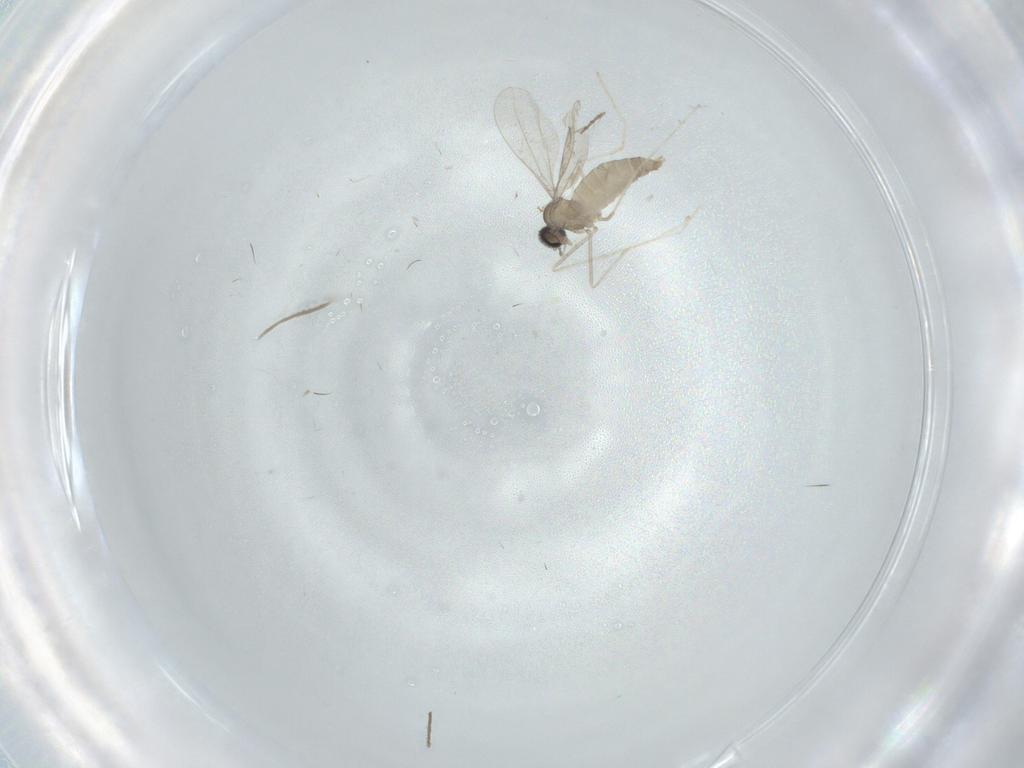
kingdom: Animalia
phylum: Arthropoda
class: Insecta
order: Diptera
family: Cecidomyiidae
